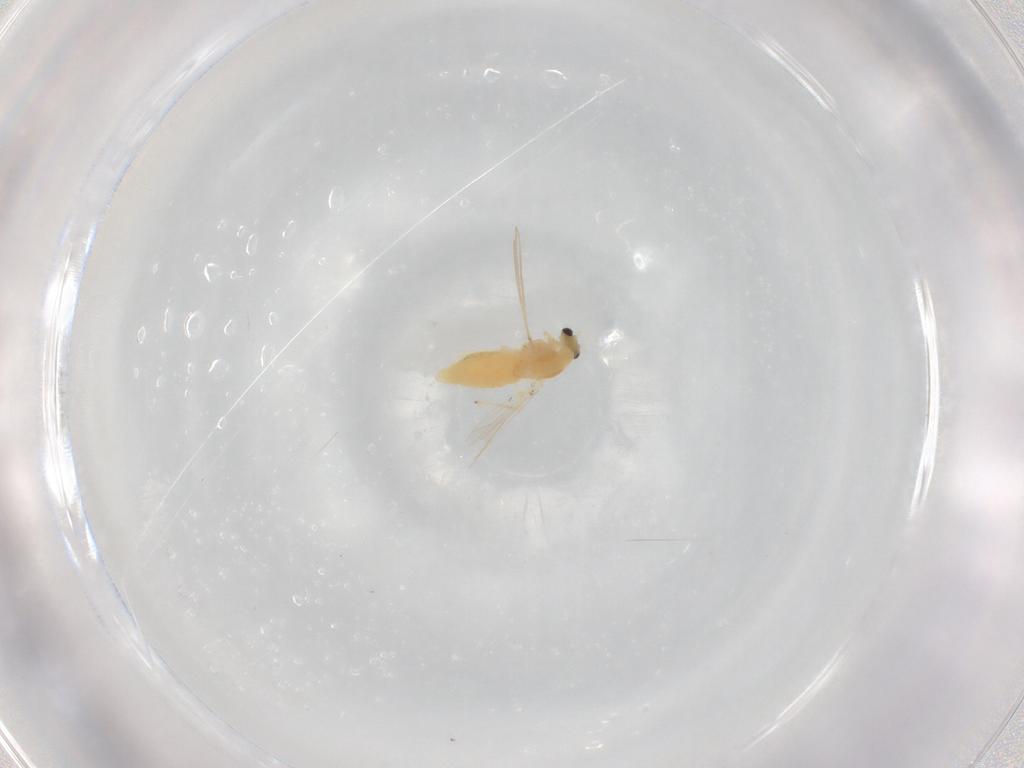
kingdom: Animalia
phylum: Arthropoda
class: Insecta
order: Diptera
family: Chironomidae
